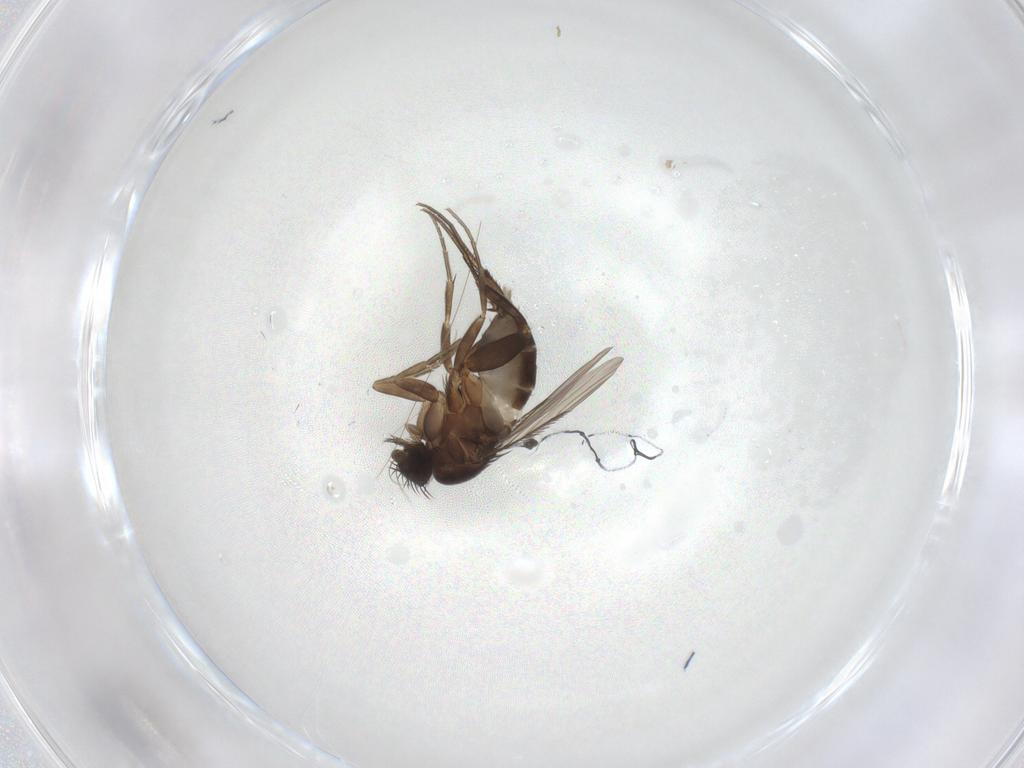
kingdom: Animalia
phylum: Arthropoda
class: Insecta
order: Diptera
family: Phoridae
